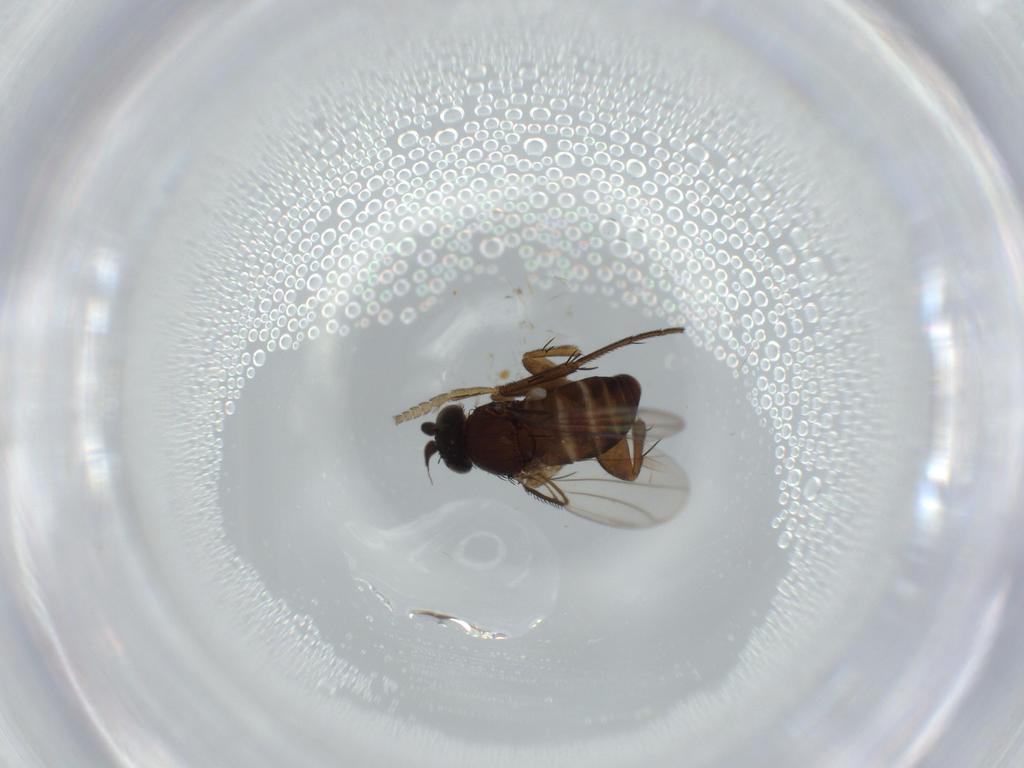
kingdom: Animalia
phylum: Arthropoda
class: Insecta
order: Diptera
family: Phoridae
